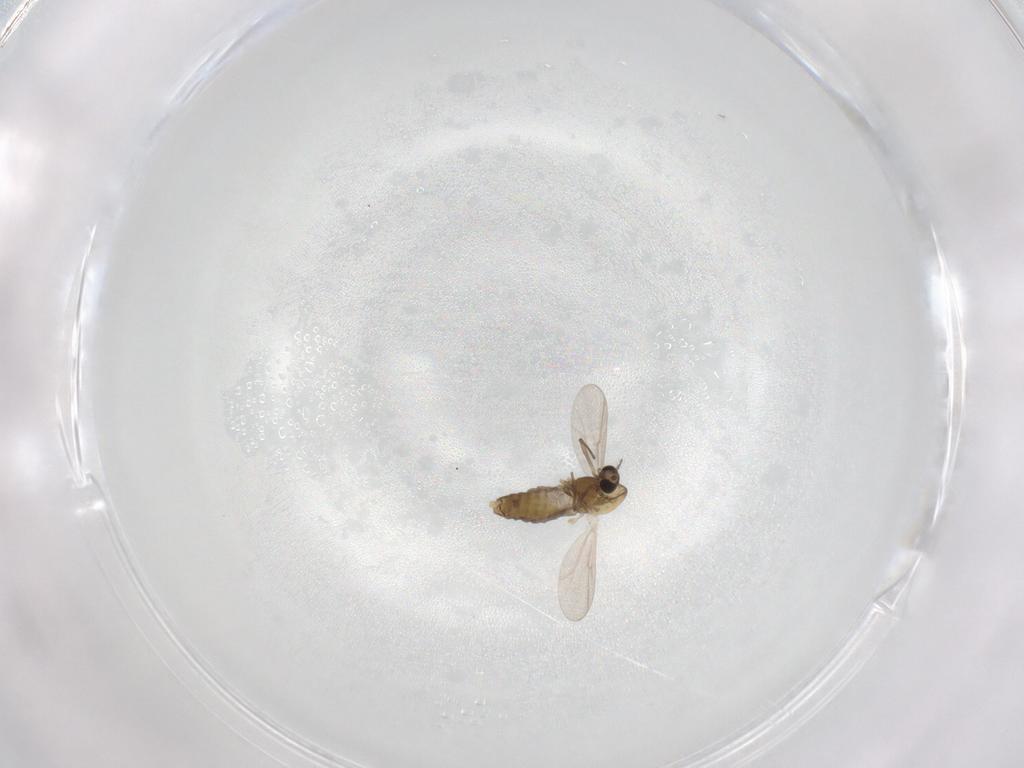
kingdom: Animalia
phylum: Arthropoda
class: Insecta
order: Diptera
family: Chironomidae
